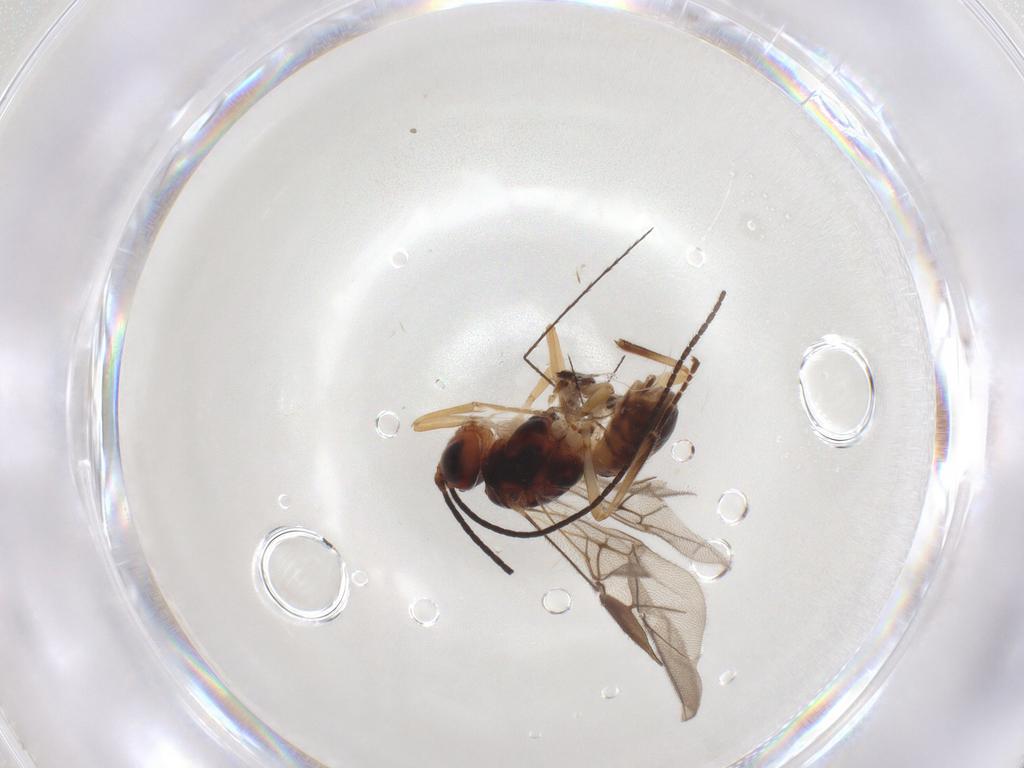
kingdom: Animalia
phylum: Arthropoda
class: Insecta
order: Hymenoptera
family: Braconidae
